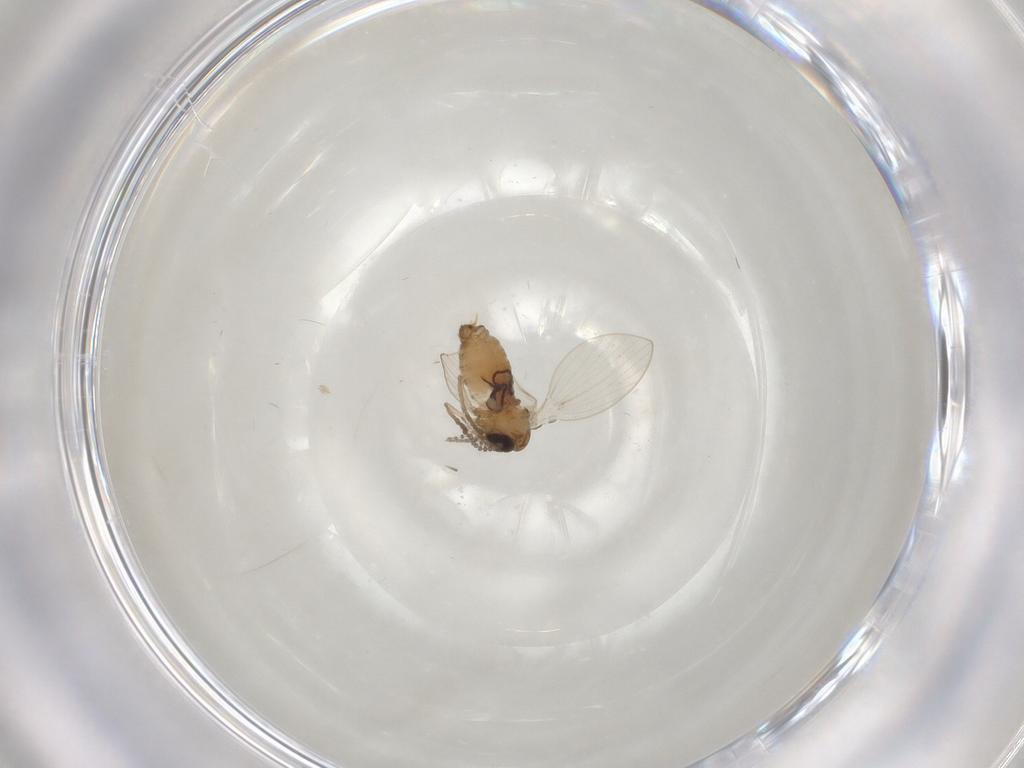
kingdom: Animalia
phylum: Arthropoda
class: Insecta
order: Diptera
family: Psychodidae
